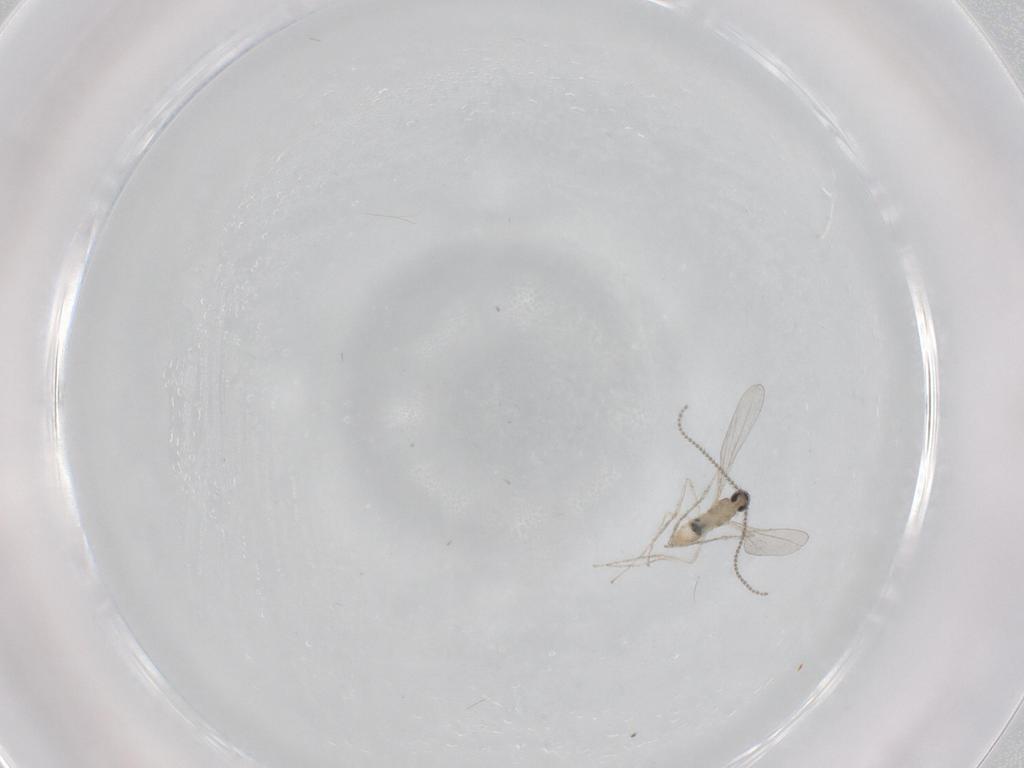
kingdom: Animalia
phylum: Arthropoda
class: Insecta
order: Diptera
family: Cecidomyiidae
